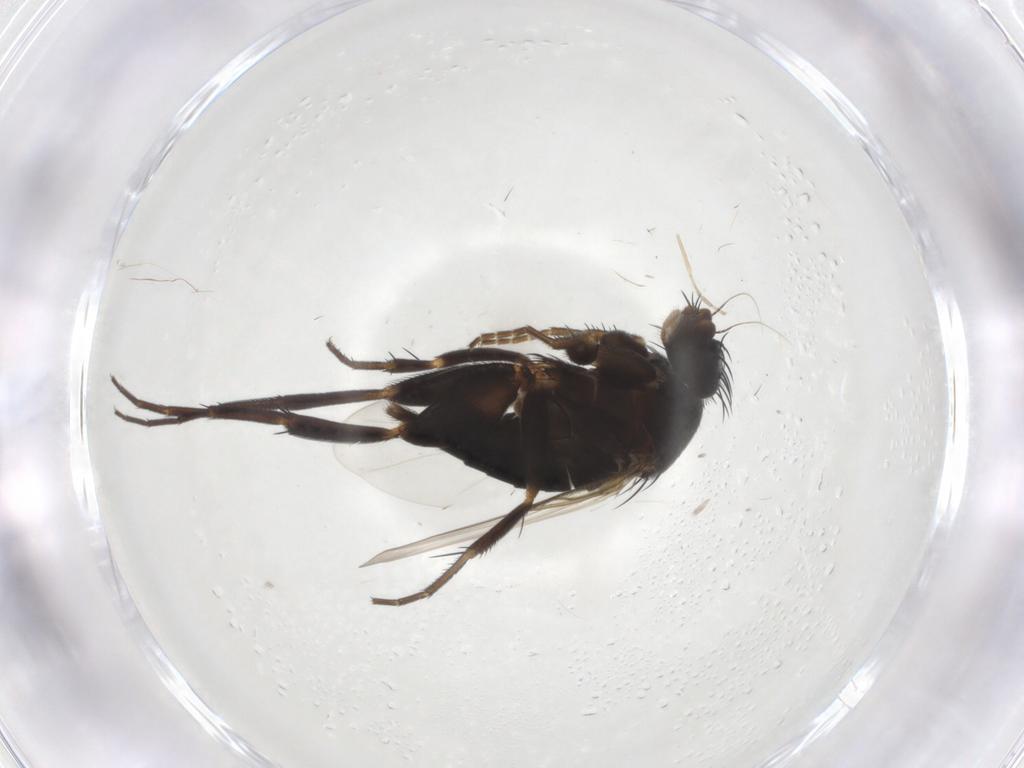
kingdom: Animalia
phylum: Arthropoda
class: Insecta
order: Diptera
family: Phoridae
